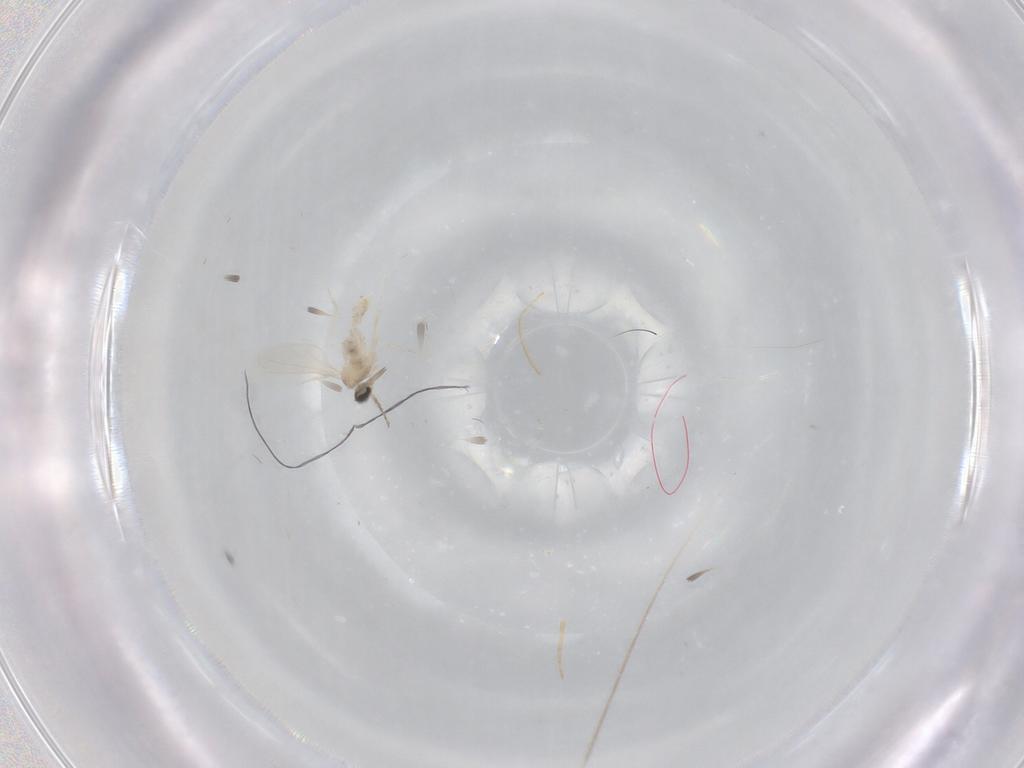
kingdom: Animalia
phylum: Arthropoda
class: Insecta
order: Diptera
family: Cecidomyiidae
